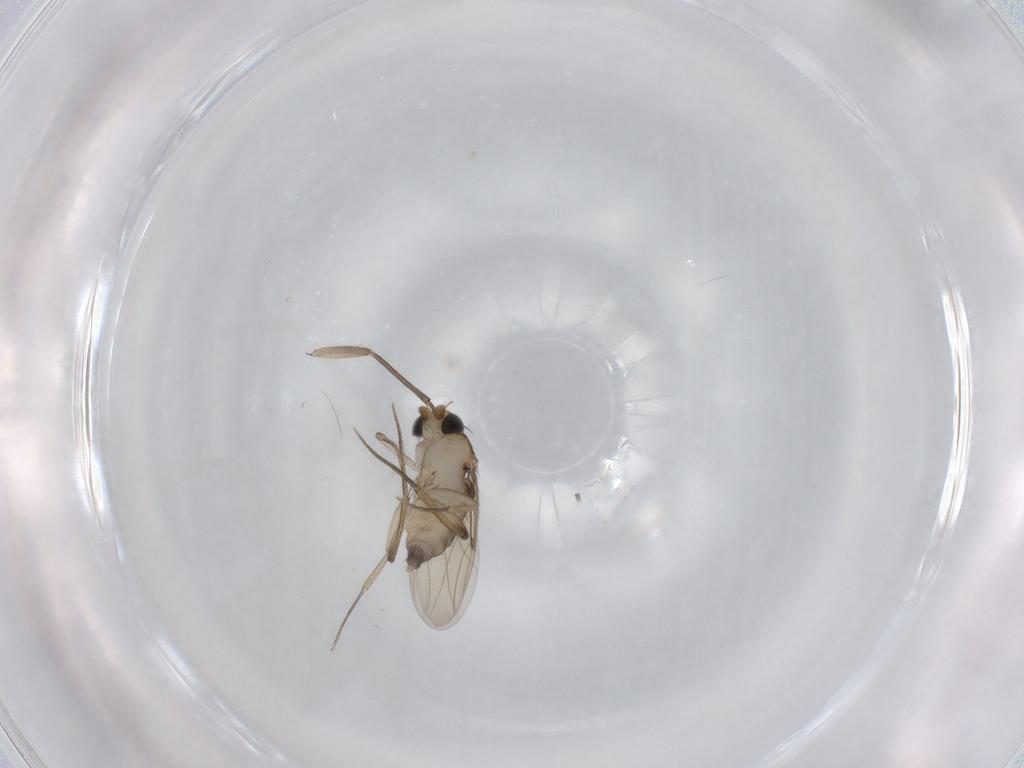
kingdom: Animalia
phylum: Arthropoda
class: Insecta
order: Diptera
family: Phoridae
